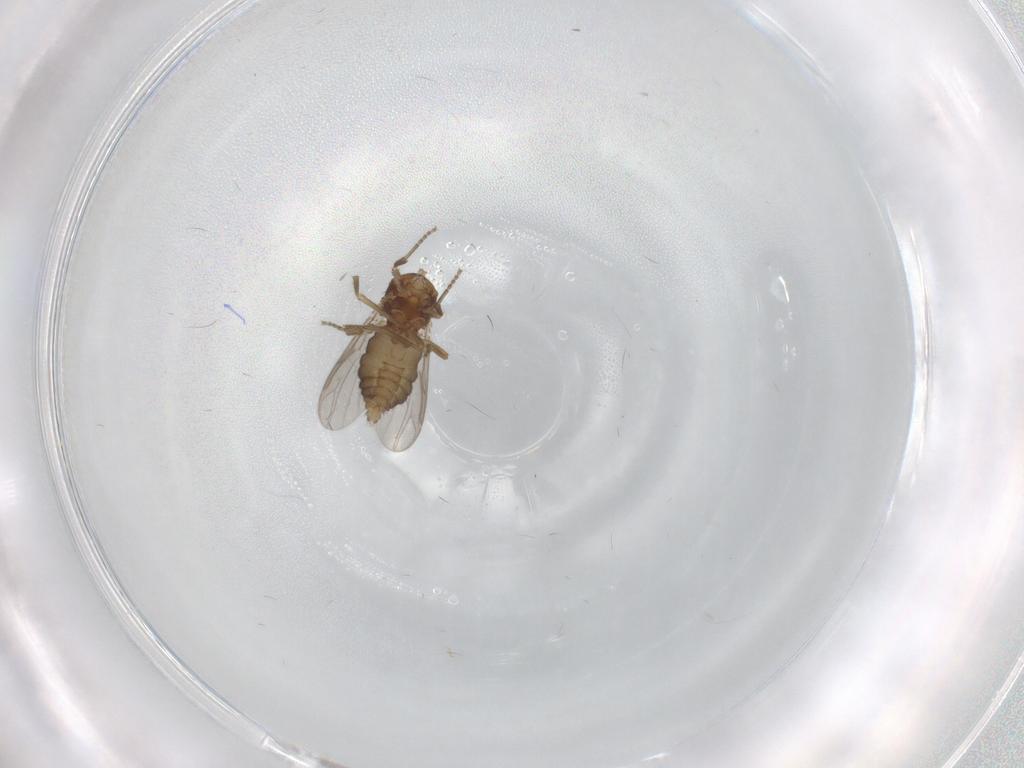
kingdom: Animalia
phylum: Arthropoda
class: Insecta
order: Diptera
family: Ceratopogonidae
